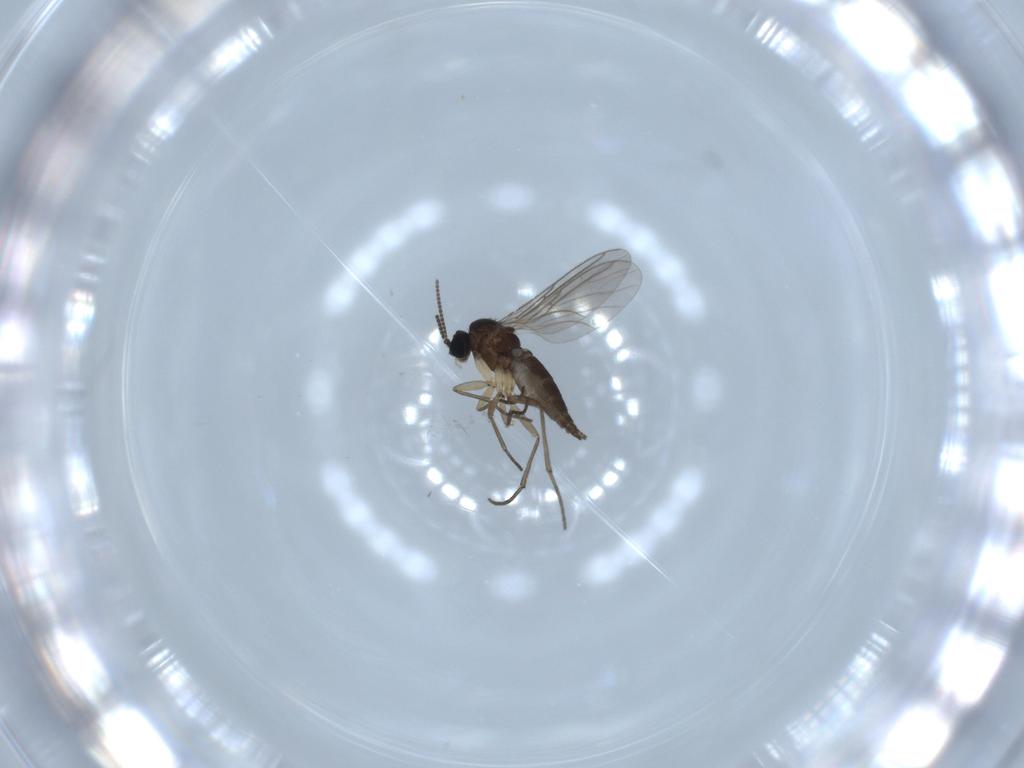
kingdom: Animalia
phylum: Arthropoda
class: Insecta
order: Diptera
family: Sciaridae
